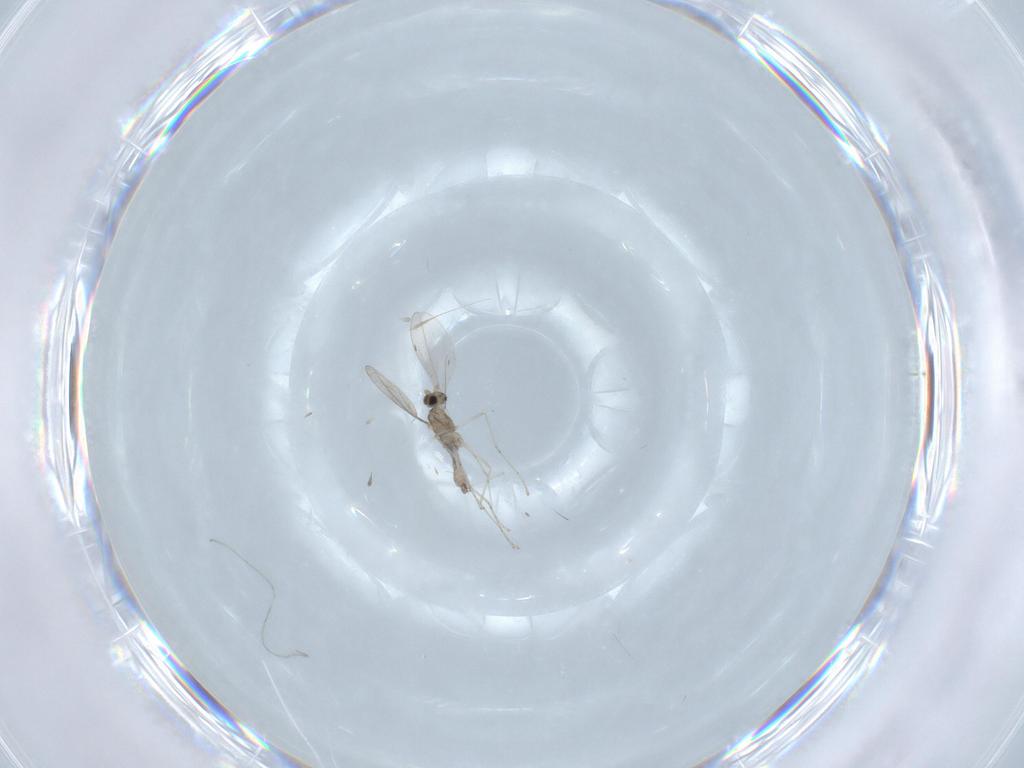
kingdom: Animalia
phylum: Arthropoda
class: Insecta
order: Diptera
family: Cecidomyiidae
